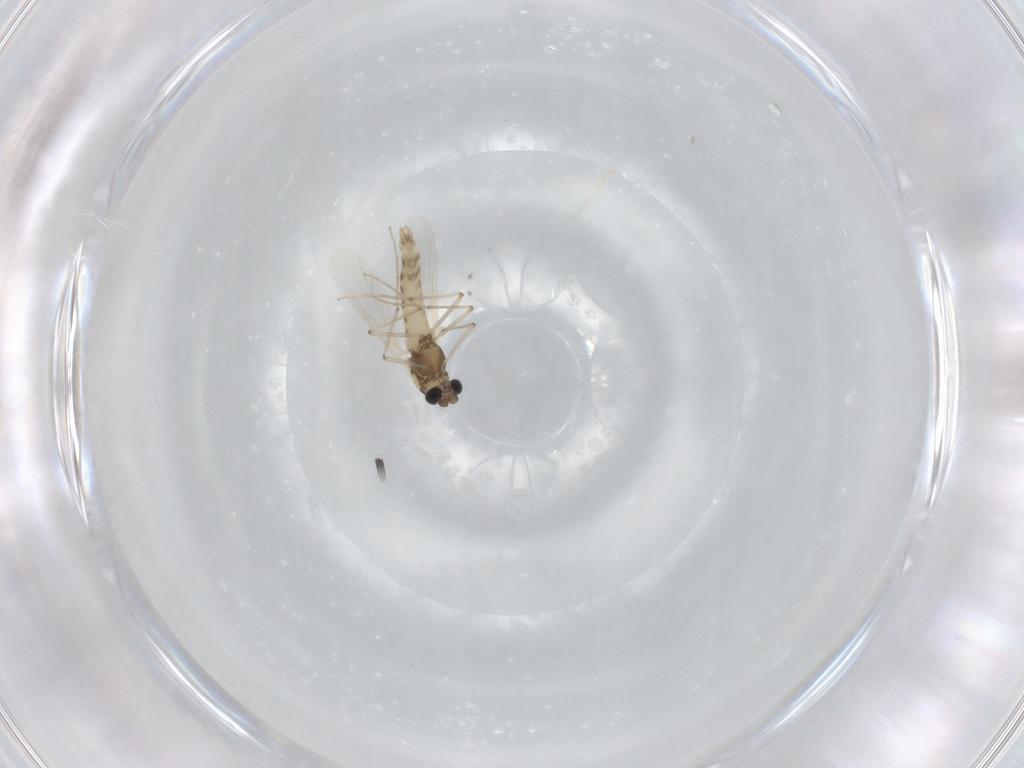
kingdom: Animalia
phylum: Arthropoda
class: Insecta
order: Diptera
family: Chironomidae
